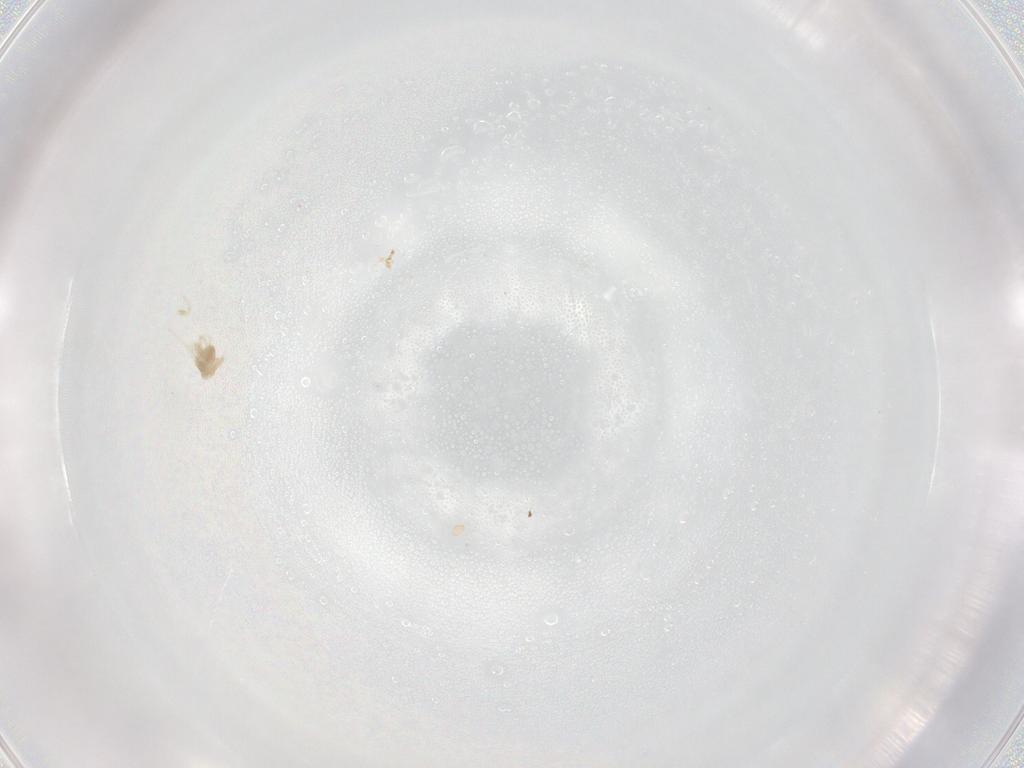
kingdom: Animalia
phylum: Arthropoda
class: Arachnida
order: Trombidiformes
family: Eupodidae
